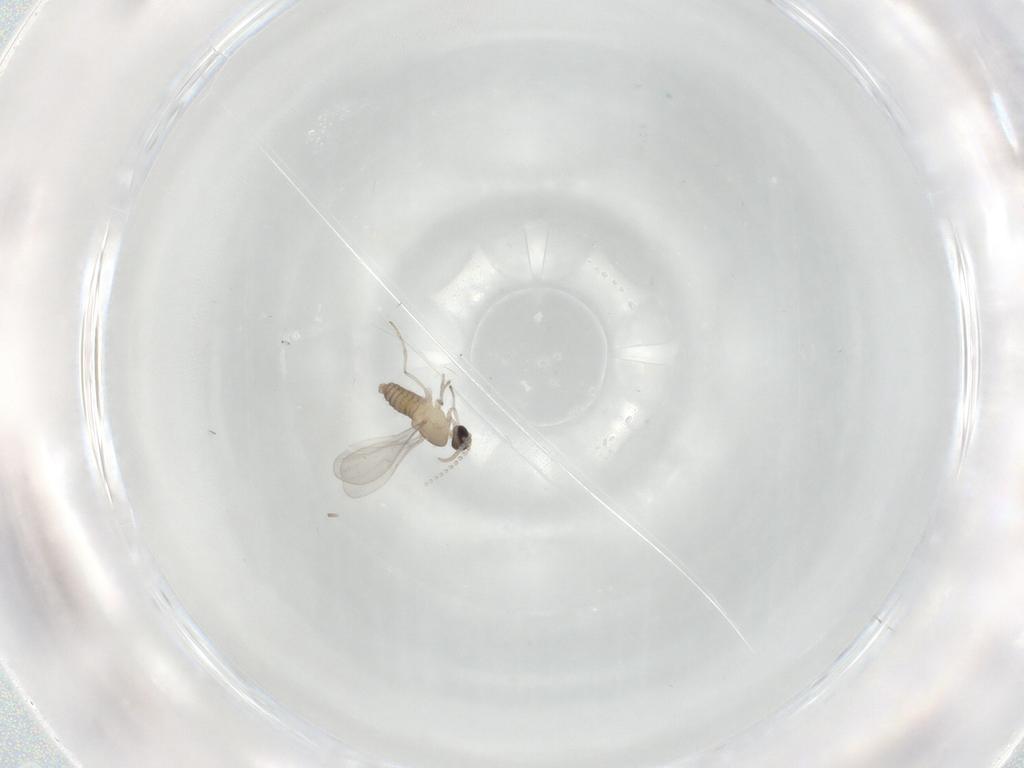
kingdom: Animalia
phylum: Arthropoda
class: Insecta
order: Diptera
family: Cecidomyiidae
